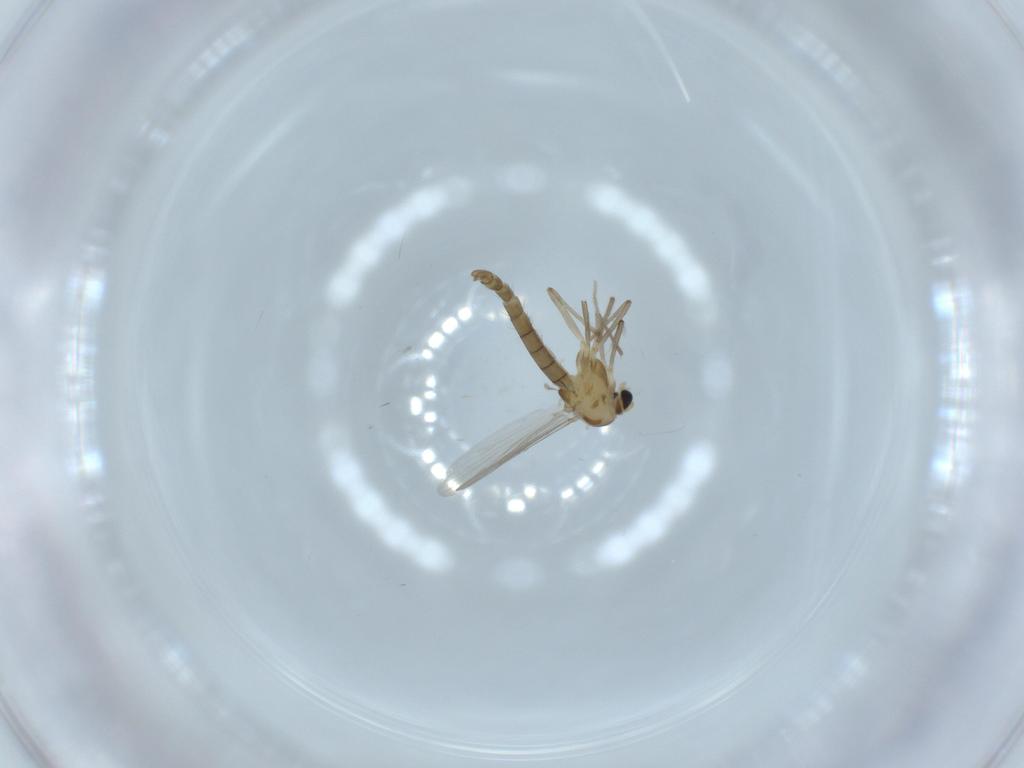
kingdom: Animalia
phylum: Arthropoda
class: Insecta
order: Diptera
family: Chironomidae
